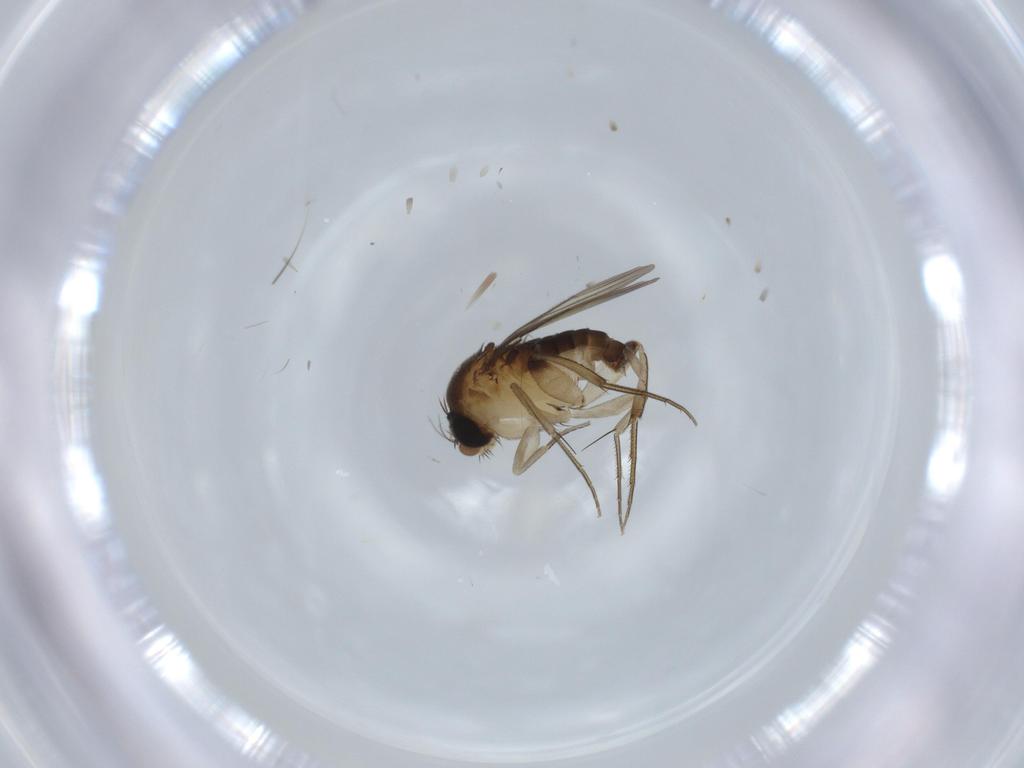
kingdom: Animalia
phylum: Arthropoda
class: Insecta
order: Diptera
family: Phoridae
